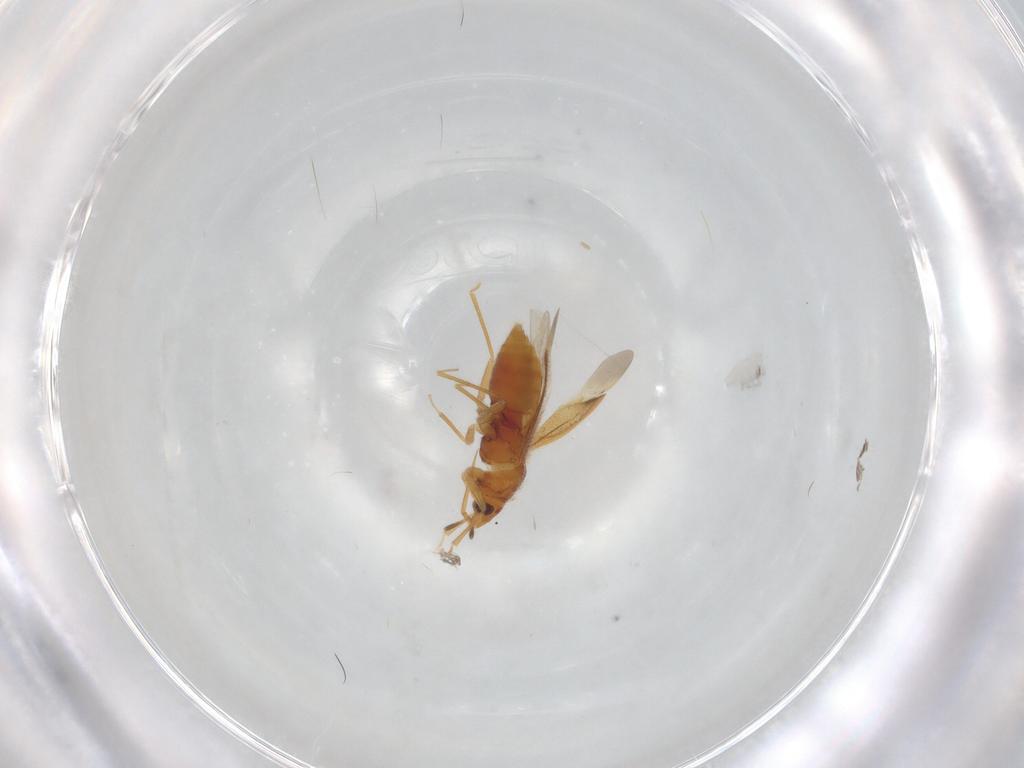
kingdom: Animalia
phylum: Arthropoda
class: Insecta
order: Hemiptera
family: Aleyrodidae
